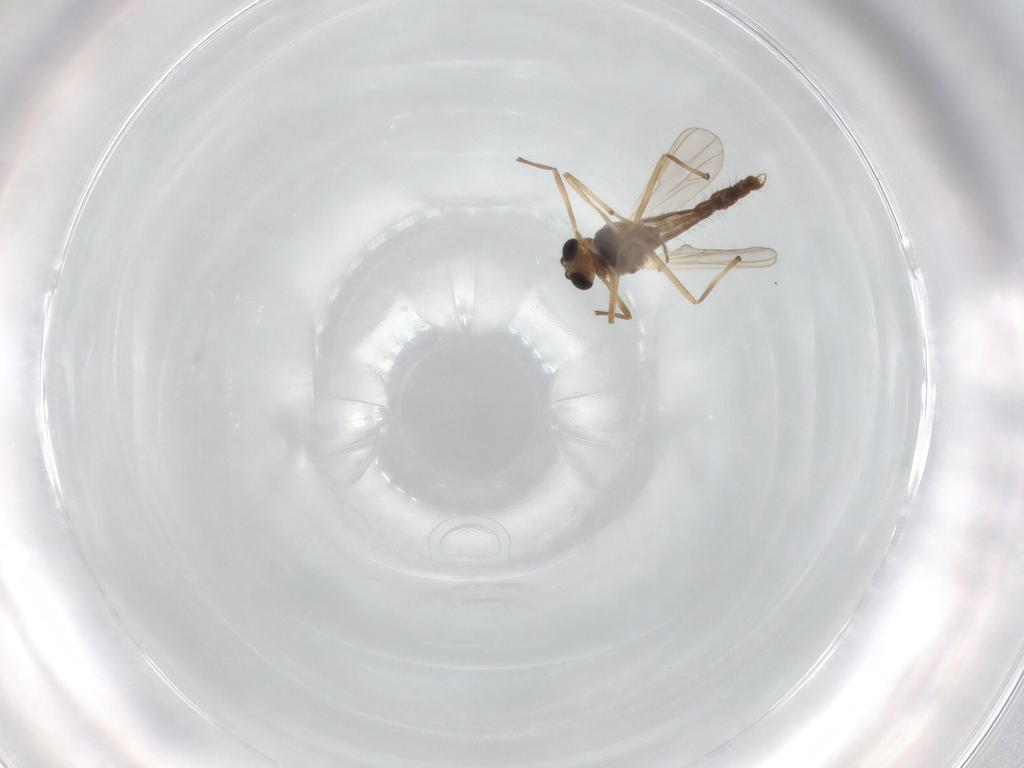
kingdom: Animalia
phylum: Arthropoda
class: Insecta
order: Diptera
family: Chironomidae
